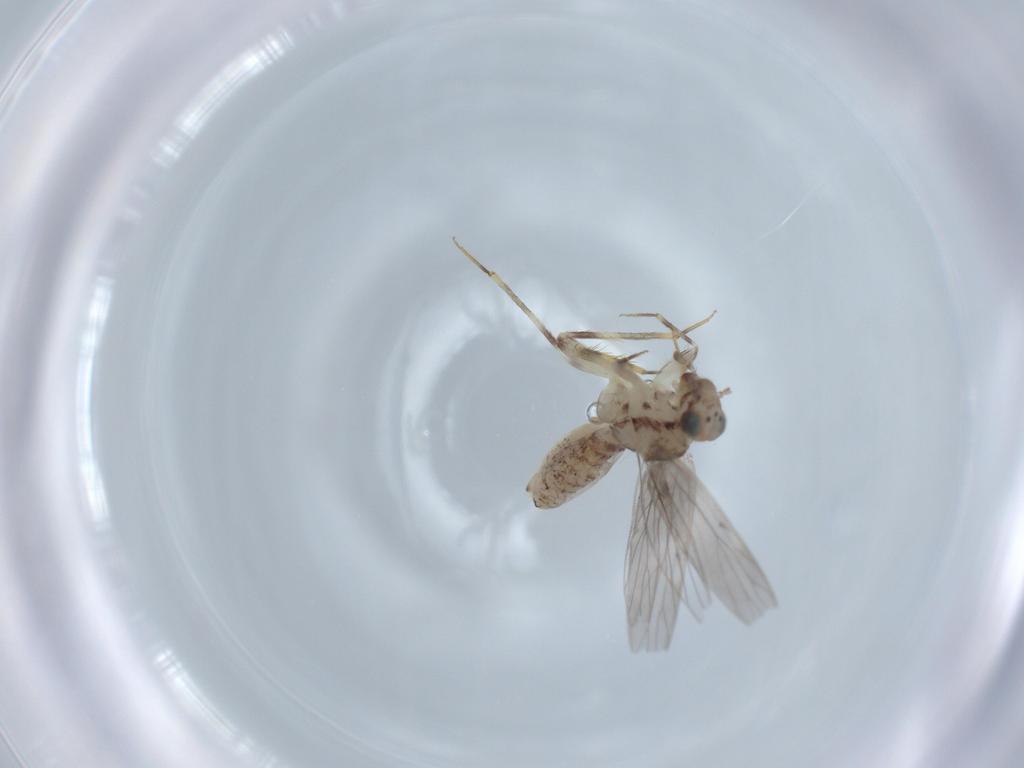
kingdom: Animalia
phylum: Arthropoda
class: Insecta
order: Psocodea
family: Lepidopsocidae
